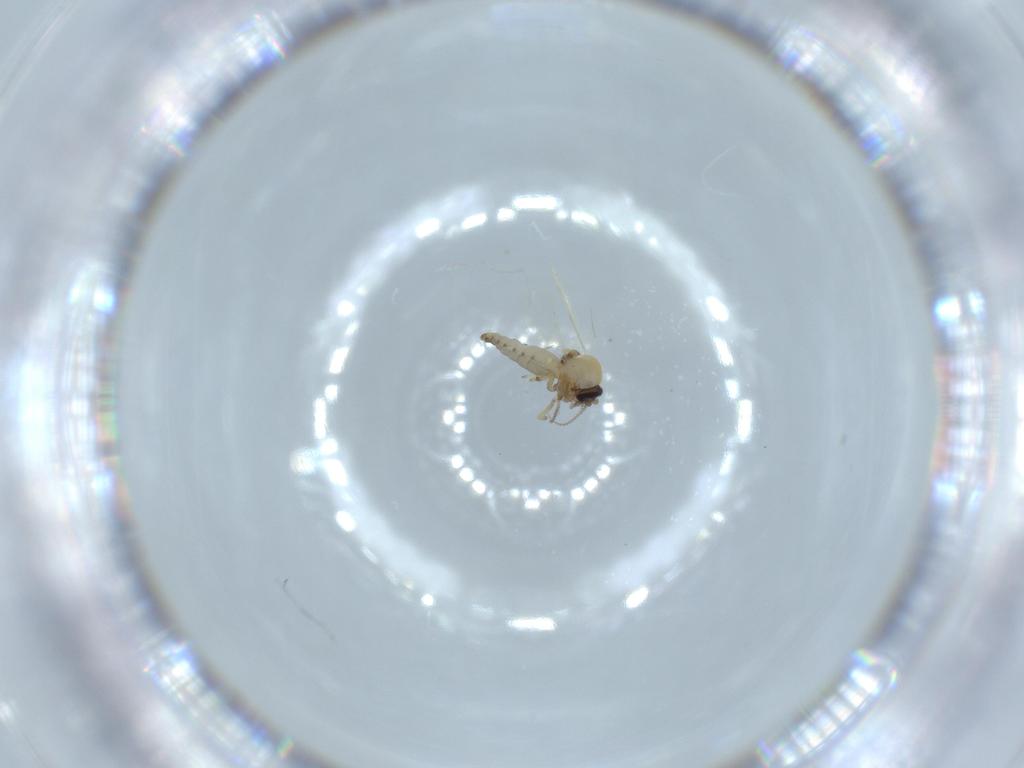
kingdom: Animalia
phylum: Arthropoda
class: Insecta
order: Diptera
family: Ceratopogonidae
